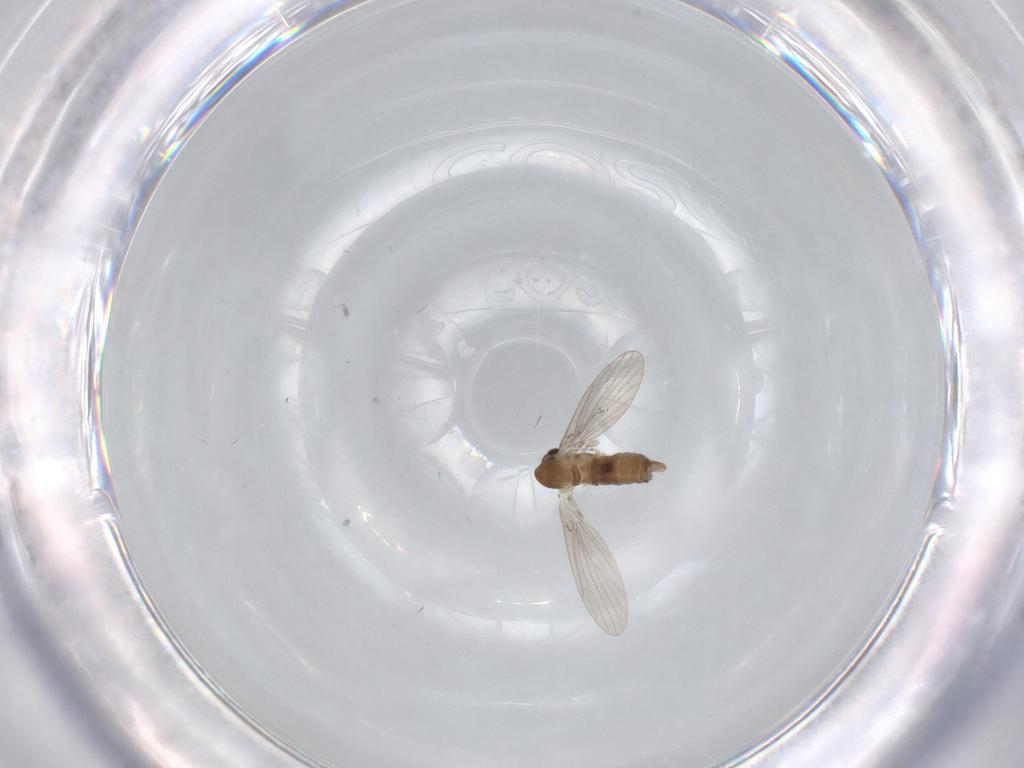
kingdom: Animalia
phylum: Arthropoda
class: Insecta
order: Diptera
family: Psychodidae
